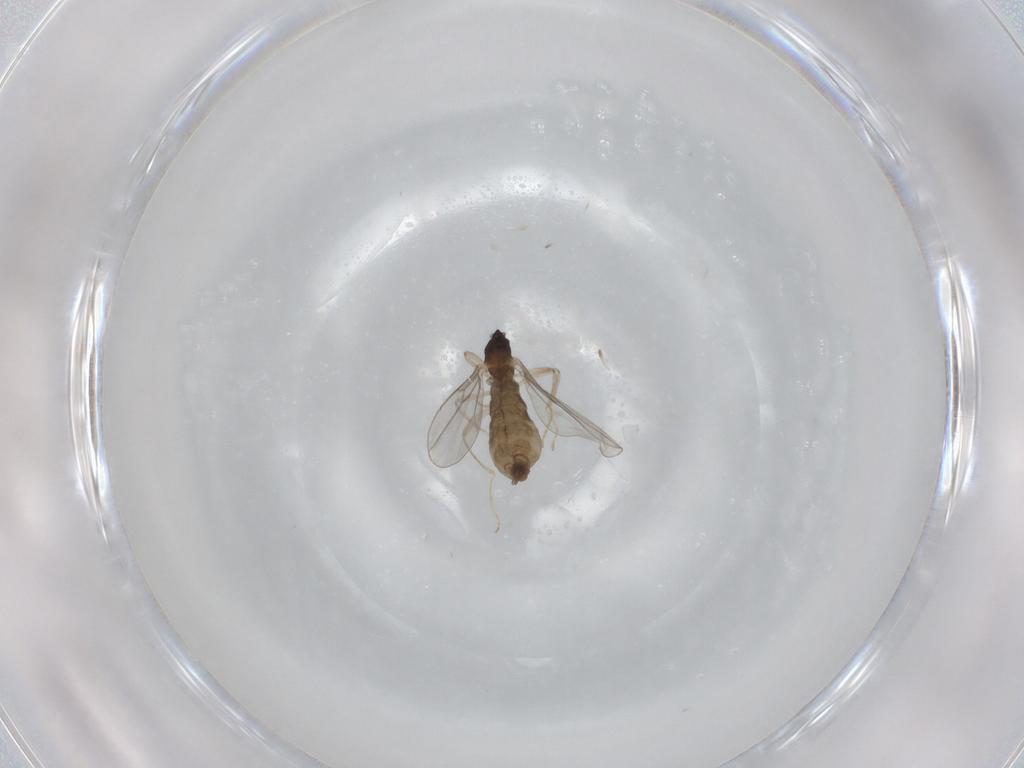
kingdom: Animalia
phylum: Arthropoda
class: Insecta
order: Diptera
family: Cecidomyiidae
